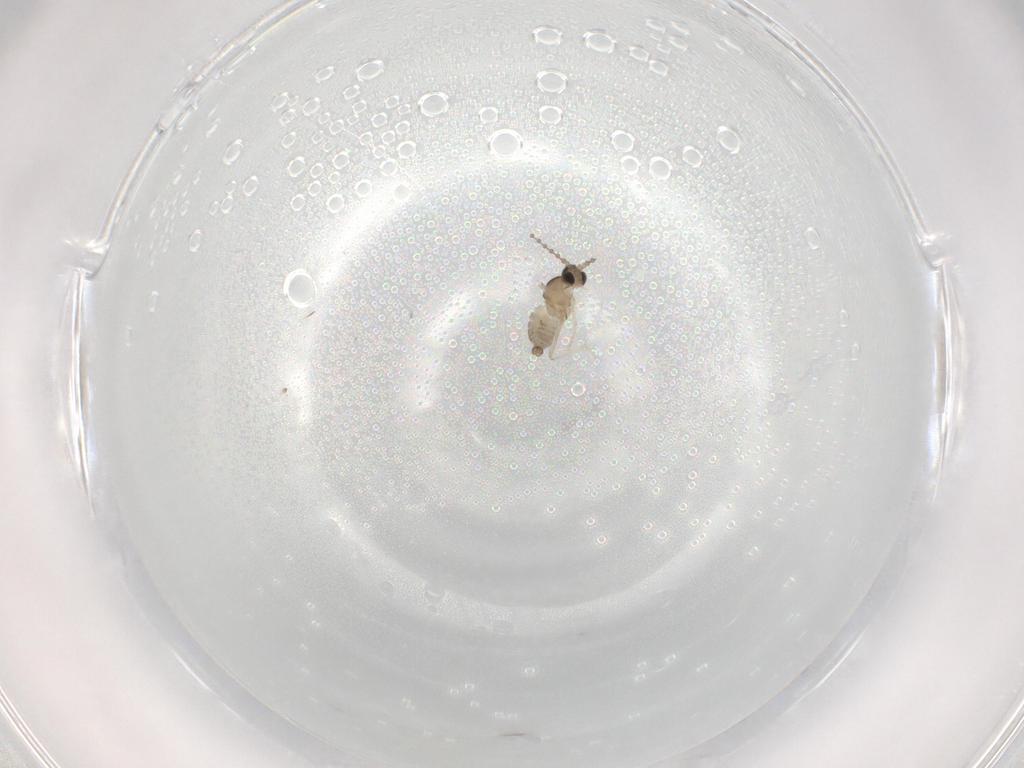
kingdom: Animalia
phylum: Arthropoda
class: Insecta
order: Diptera
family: Cecidomyiidae
